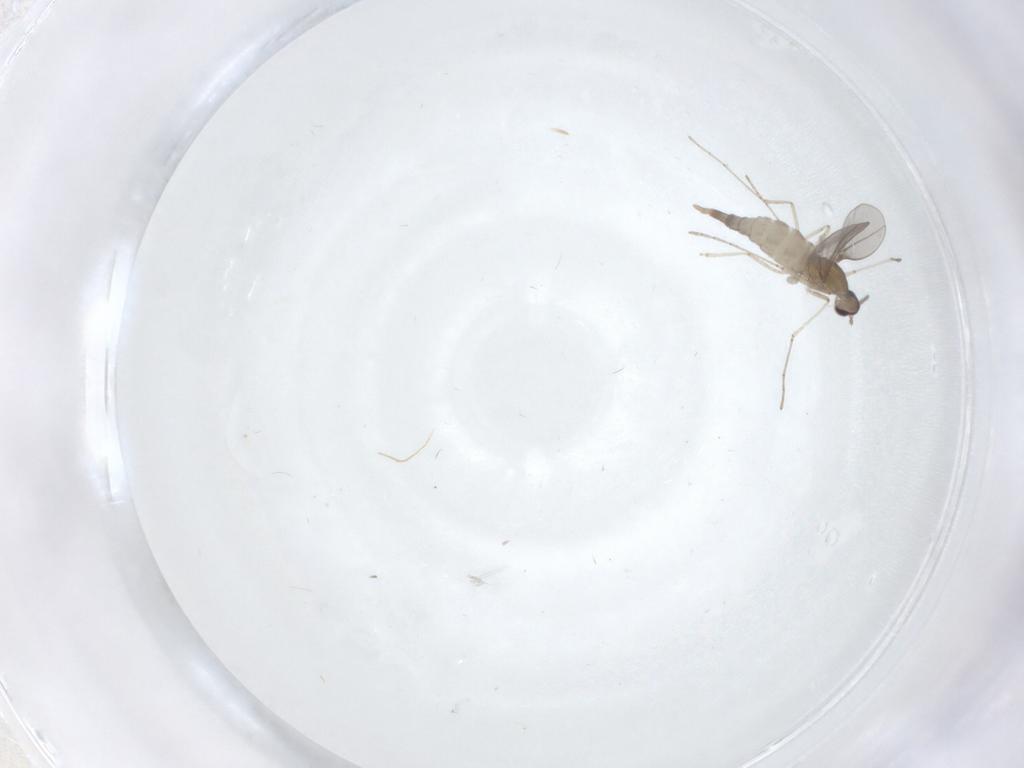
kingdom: Animalia
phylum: Arthropoda
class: Insecta
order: Diptera
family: Cecidomyiidae
